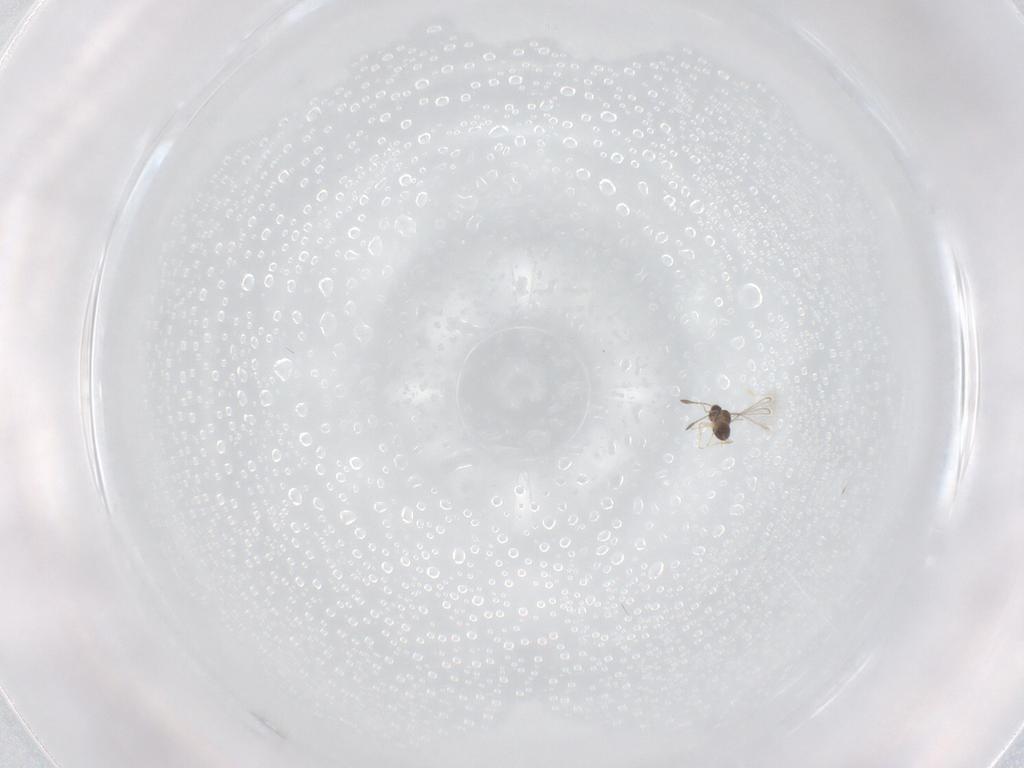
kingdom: Animalia
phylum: Arthropoda
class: Insecta
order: Hymenoptera
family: Mymaridae
